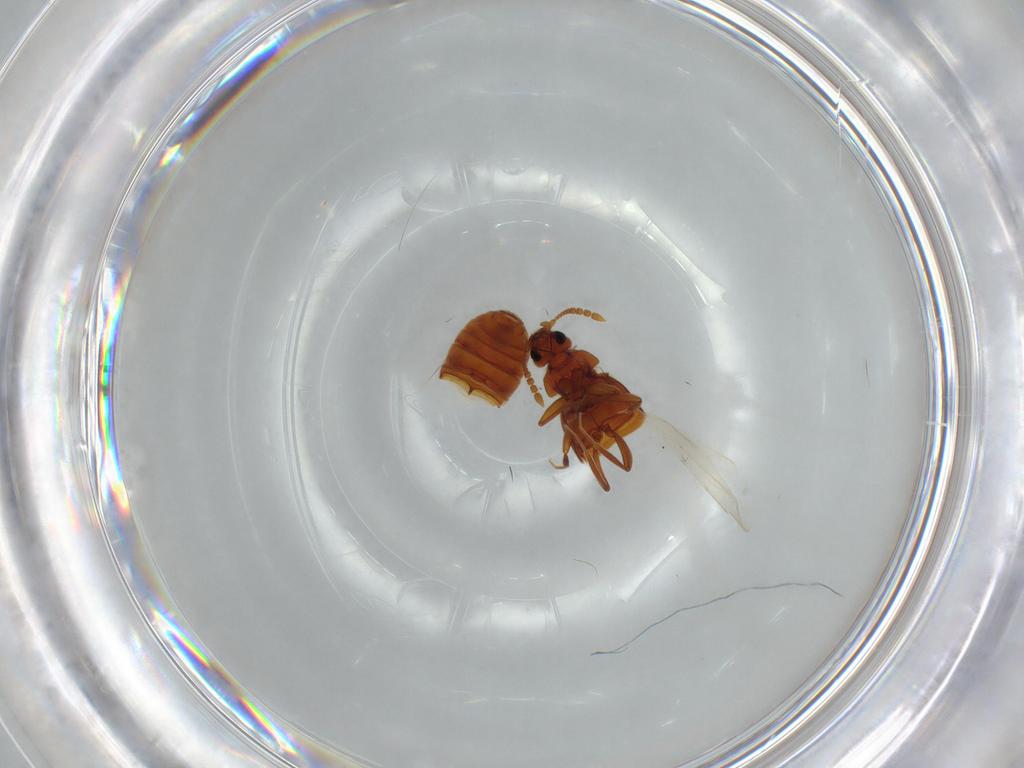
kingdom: Animalia
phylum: Arthropoda
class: Insecta
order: Coleoptera
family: Staphylinidae
